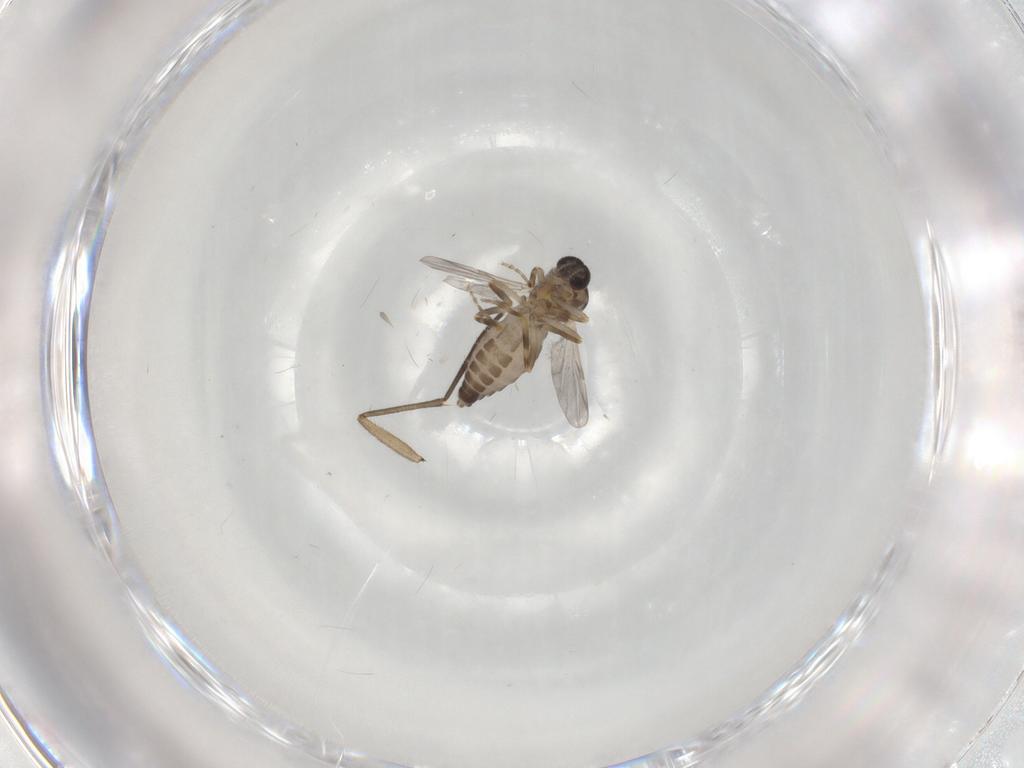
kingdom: Animalia
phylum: Arthropoda
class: Insecta
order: Diptera
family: Ceratopogonidae
